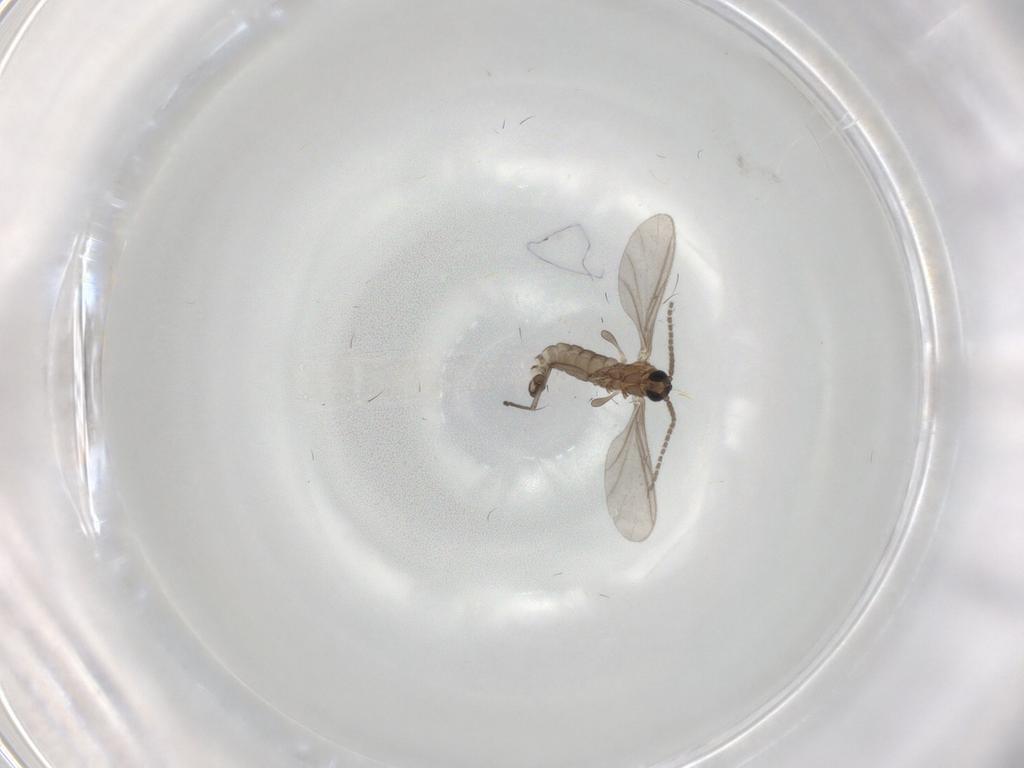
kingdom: Animalia
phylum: Arthropoda
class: Insecta
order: Diptera
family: Sciaridae
